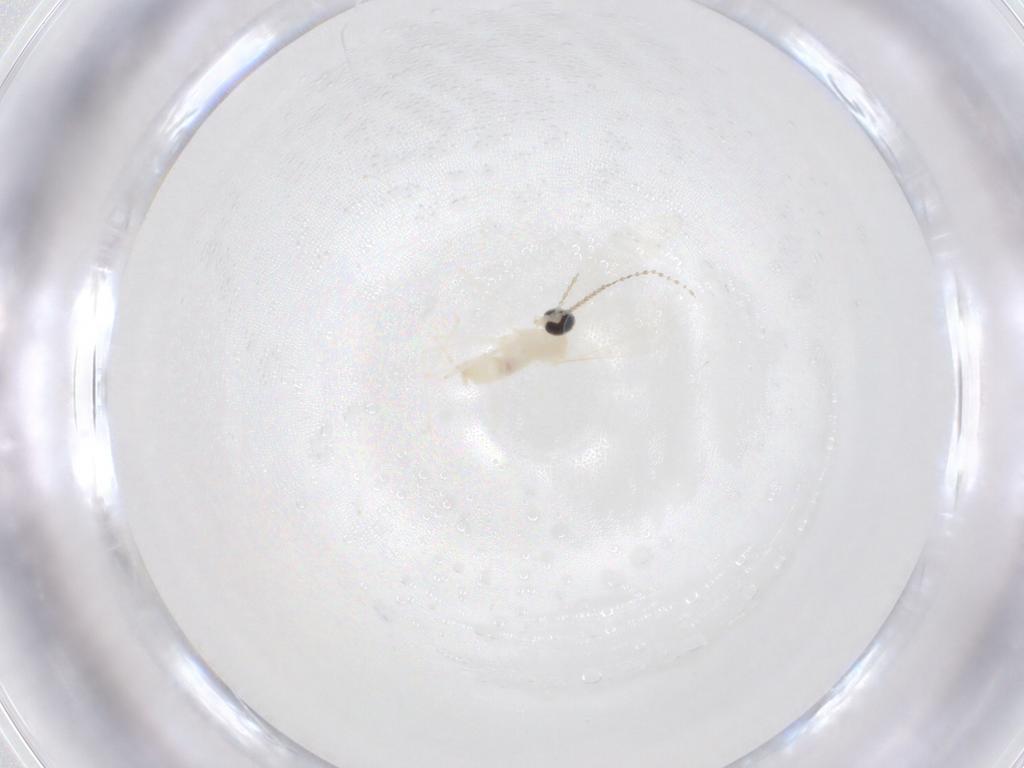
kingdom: Animalia
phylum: Arthropoda
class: Insecta
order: Diptera
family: Cecidomyiidae
